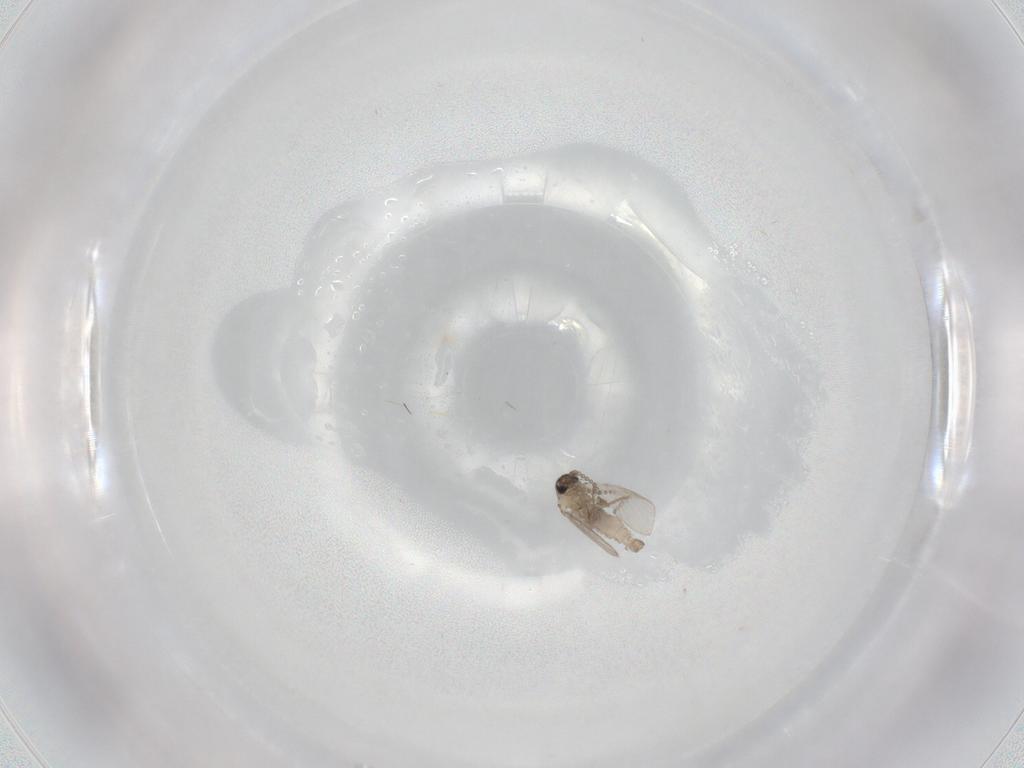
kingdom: Animalia
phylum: Arthropoda
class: Insecta
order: Diptera
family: Psychodidae
